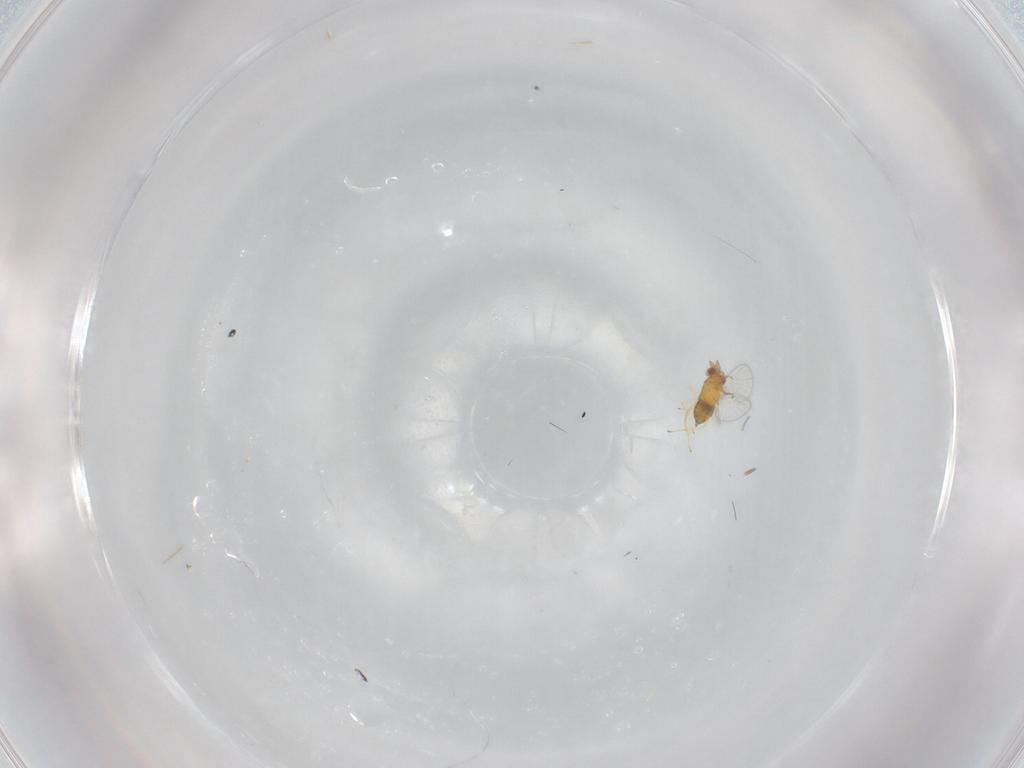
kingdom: Animalia
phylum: Arthropoda
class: Insecta
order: Hymenoptera
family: Trichogrammatidae
